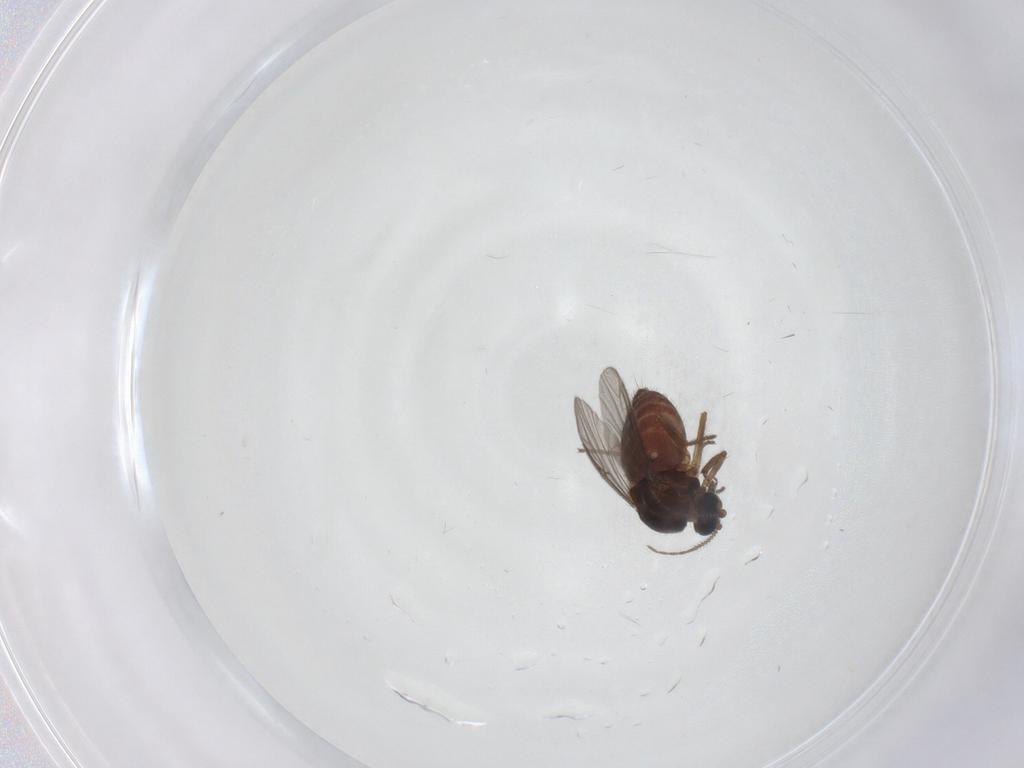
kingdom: Animalia
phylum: Arthropoda
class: Insecta
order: Diptera
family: Ceratopogonidae
